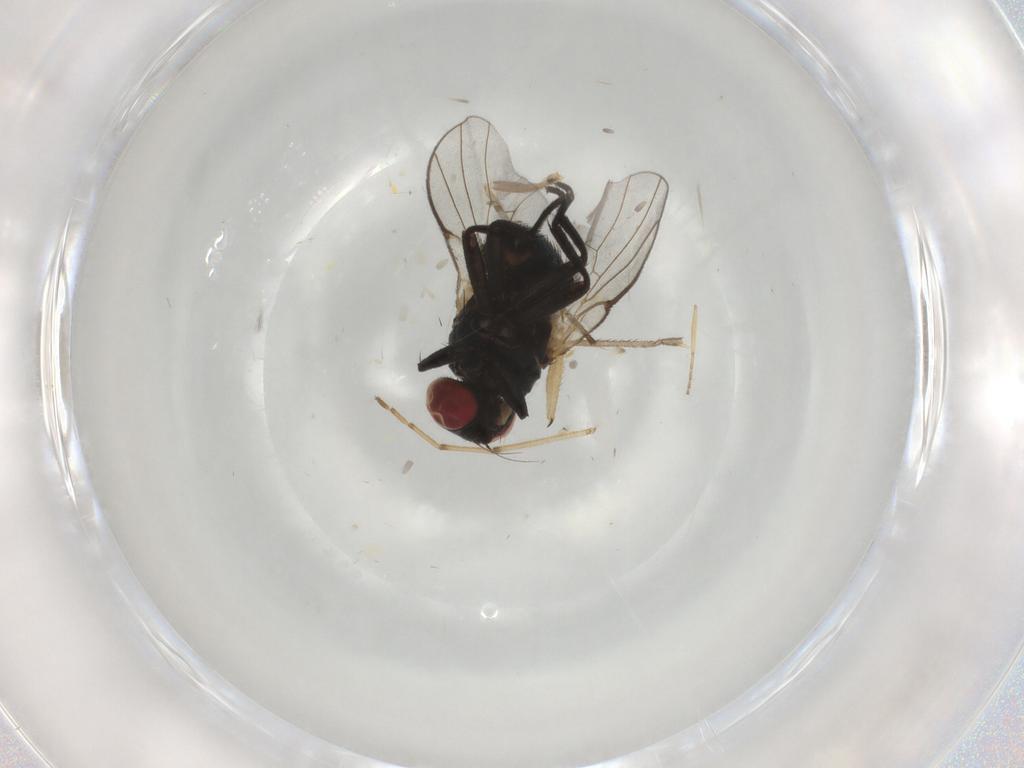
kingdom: Animalia
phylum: Arthropoda
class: Insecta
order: Diptera
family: Agromyzidae
